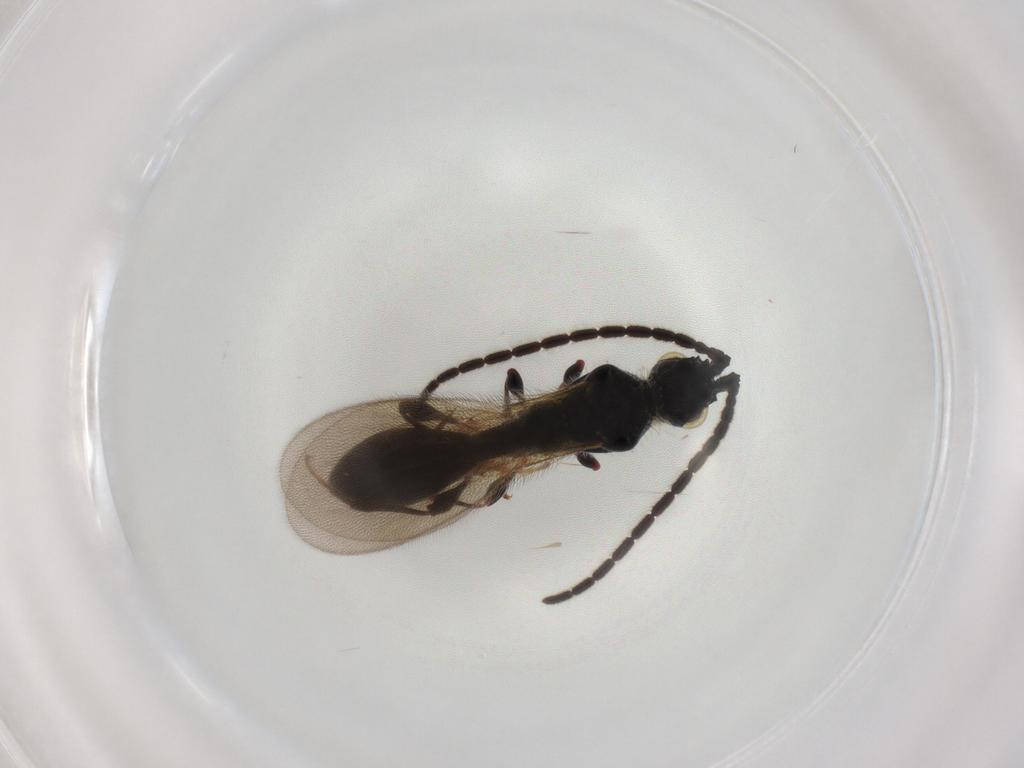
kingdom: Animalia
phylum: Arthropoda
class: Insecta
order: Hymenoptera
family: Diapriidae
